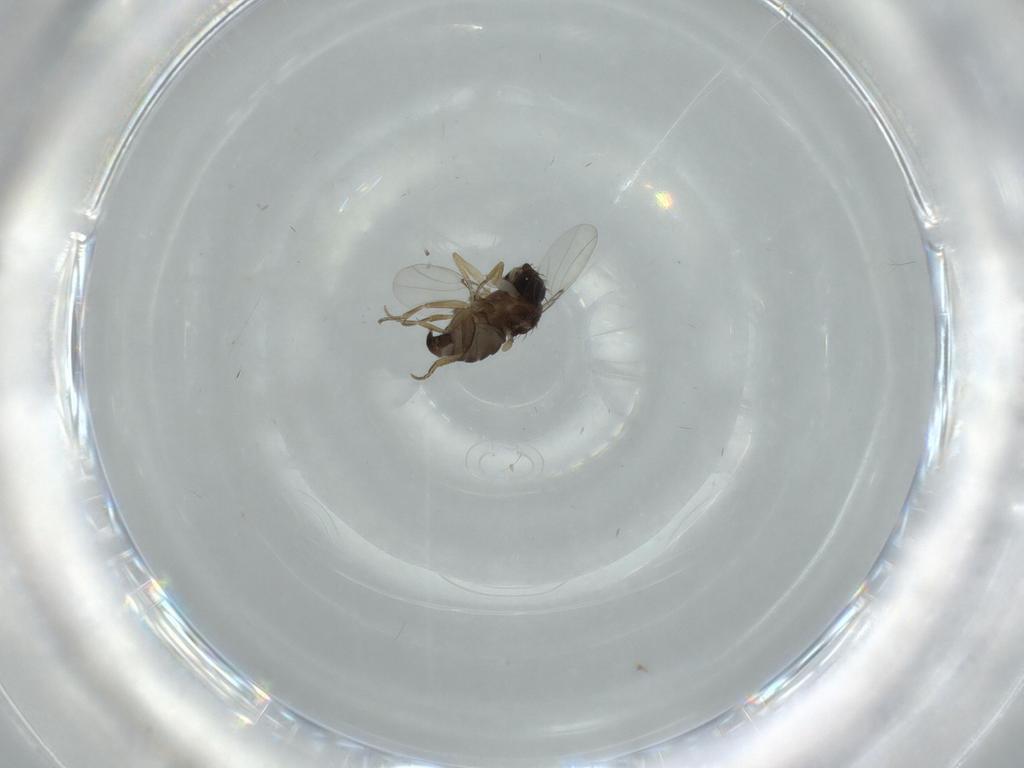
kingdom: Animalia
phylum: Arthropoda
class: Insecta
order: Diptera
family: Phoridae
